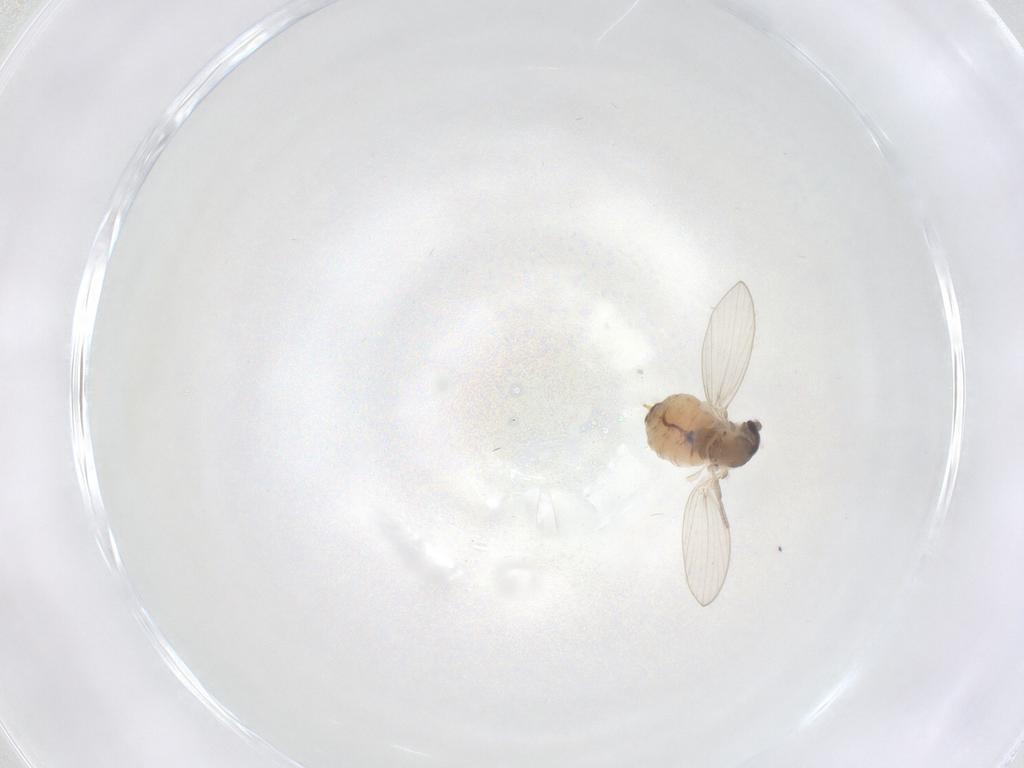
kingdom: Animalia
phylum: Arthropoda
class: Insecta
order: Diptera
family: Psychodidae
